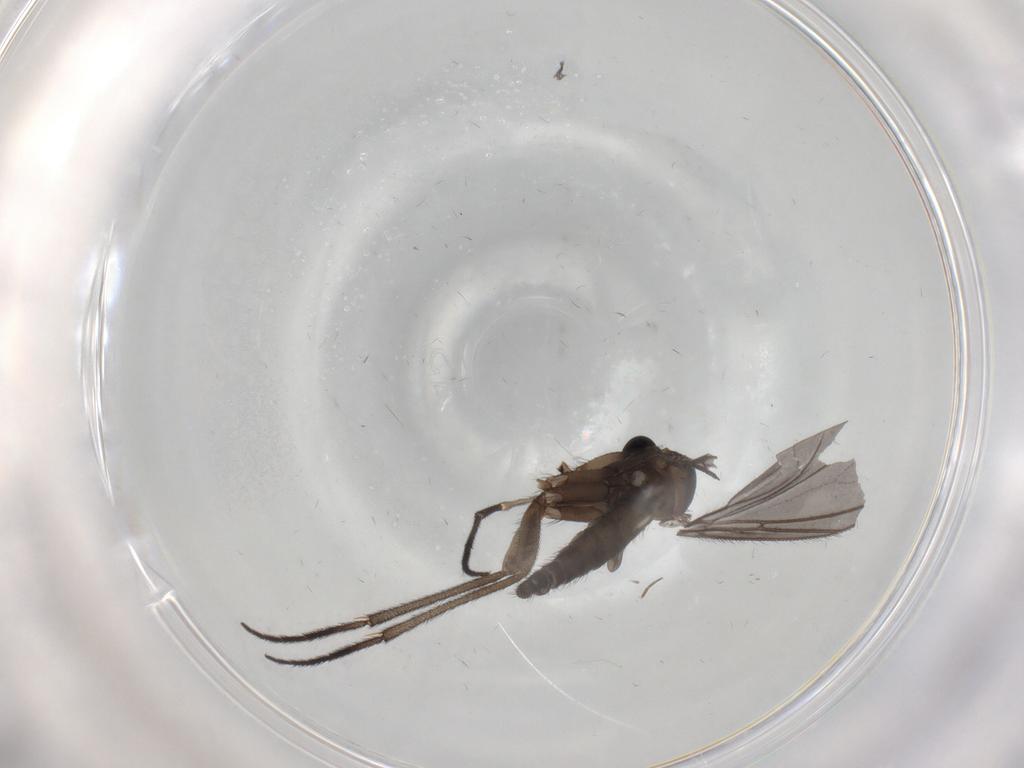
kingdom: Animalia
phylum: Arthropoda
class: Insecta
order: Diptera
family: Sciaridae
